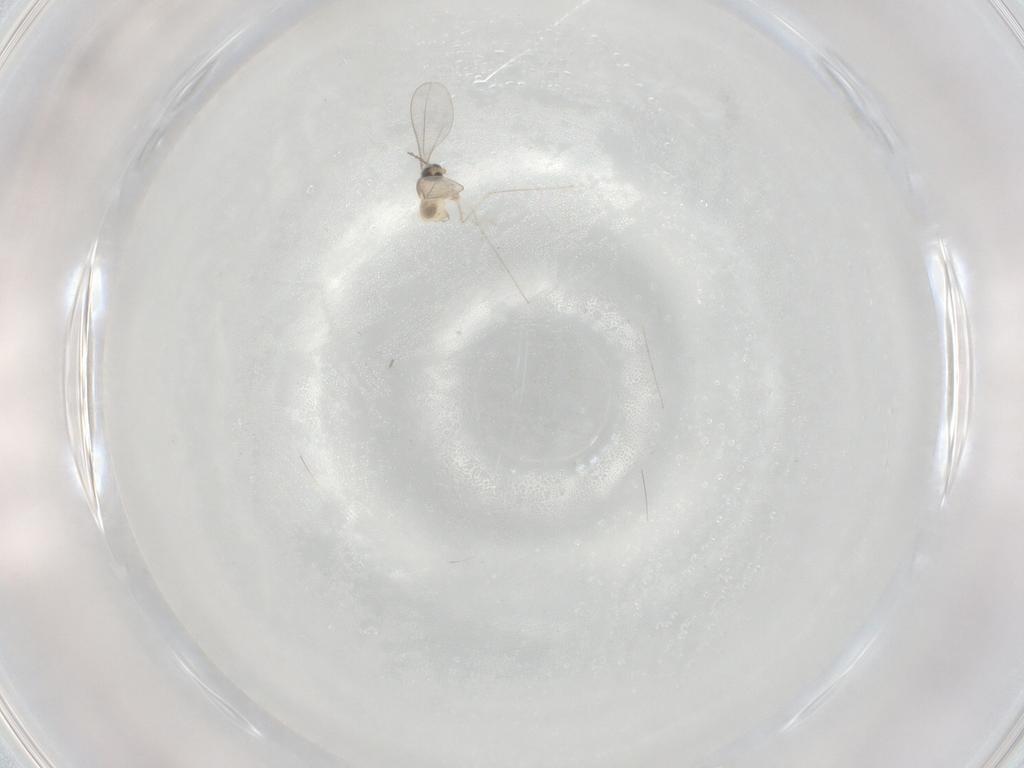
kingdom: Animalia
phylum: Arthropoda
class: Insecta
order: Diptera
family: Cecidomyiidae
